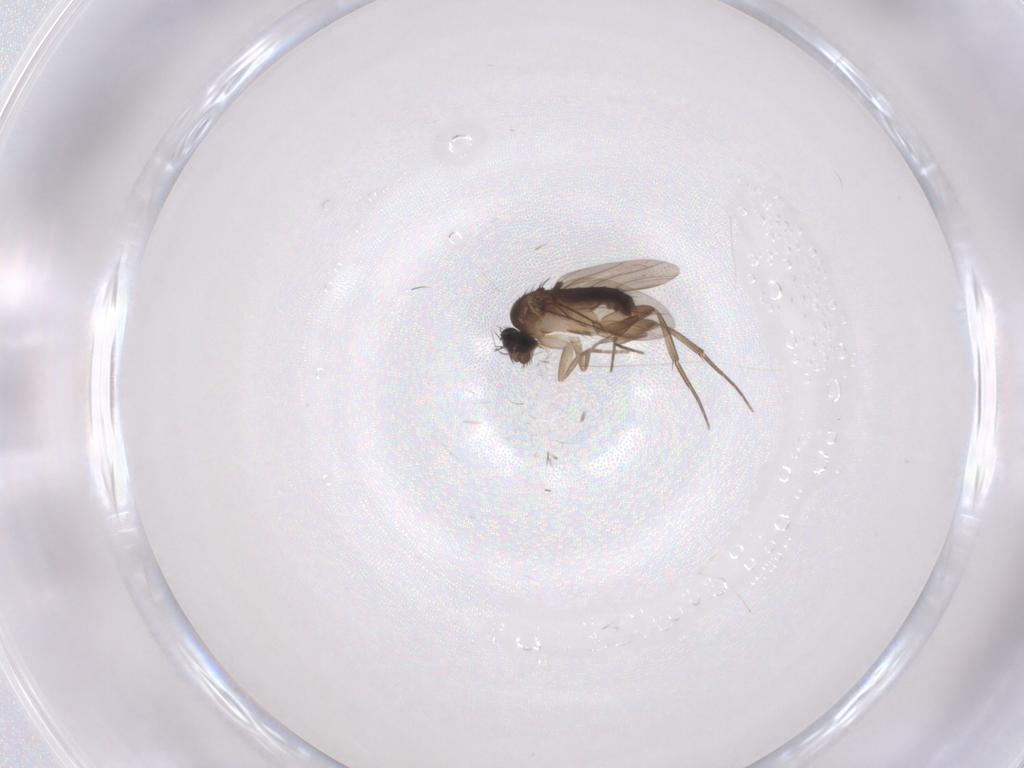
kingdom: Animalia
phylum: Arthropoda
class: Insecta
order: Diptera
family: Phoridae
